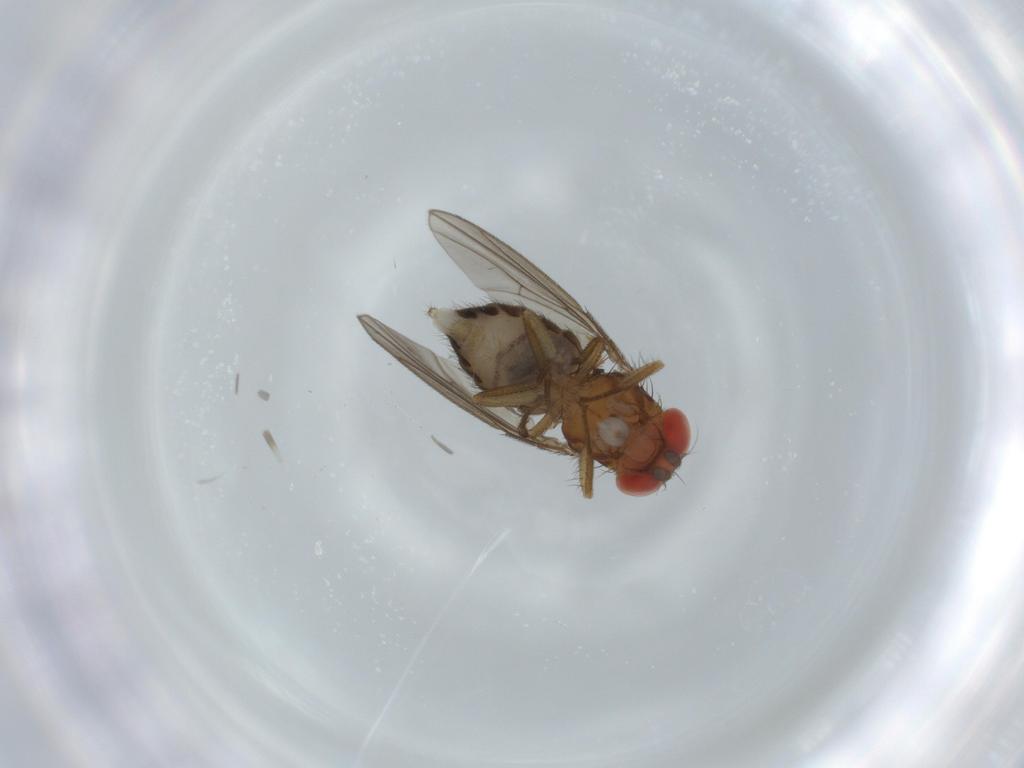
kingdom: Animalia
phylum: Arthropoda
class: Insecta
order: Diptera
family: Drosophilidae
